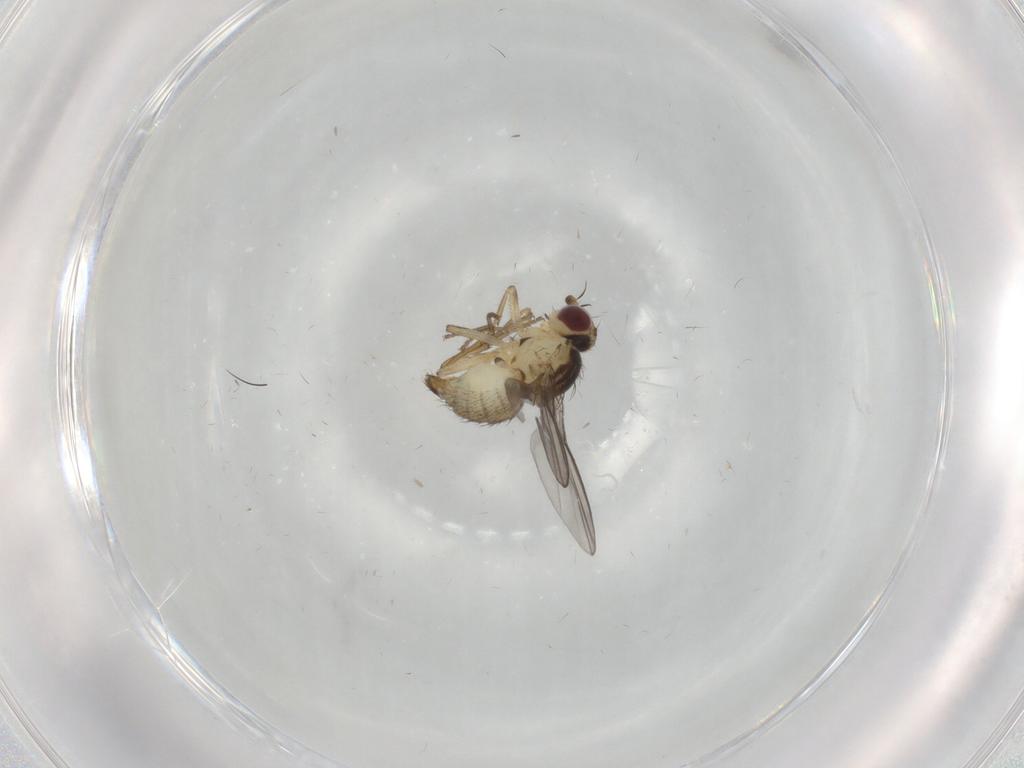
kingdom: Animalia
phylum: Arthropoda
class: Insecta
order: Diptera
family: Agromyzidae
